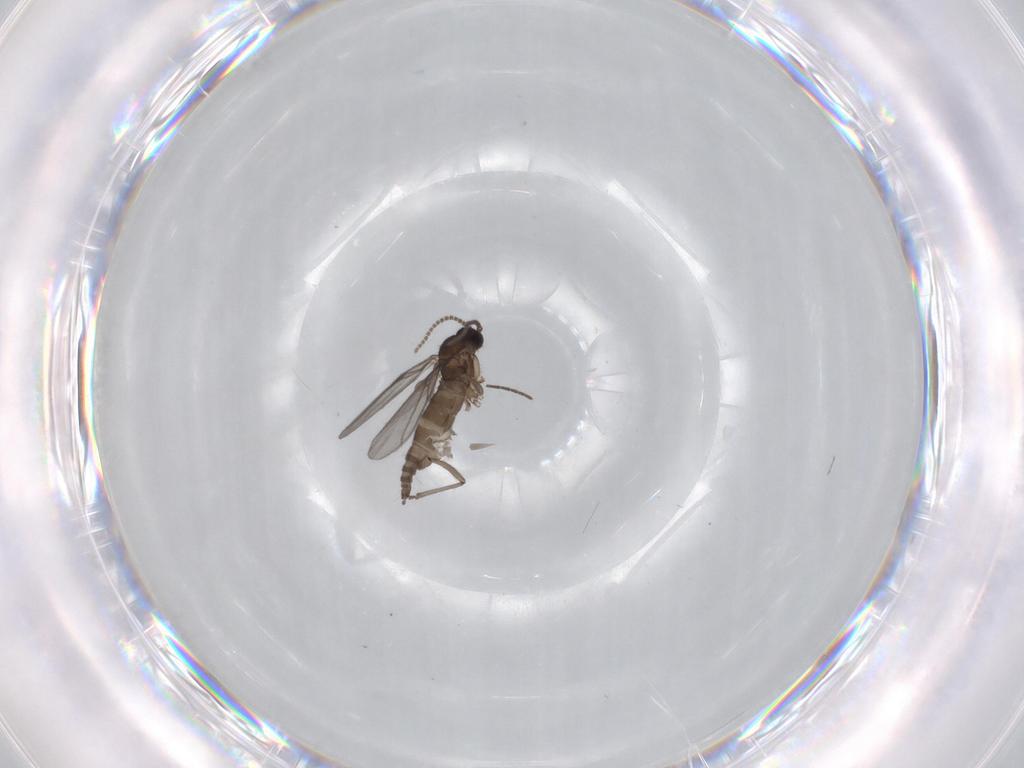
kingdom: Animalia
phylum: Arthropoda
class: Insecta
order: Diptera
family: Chironomidae
